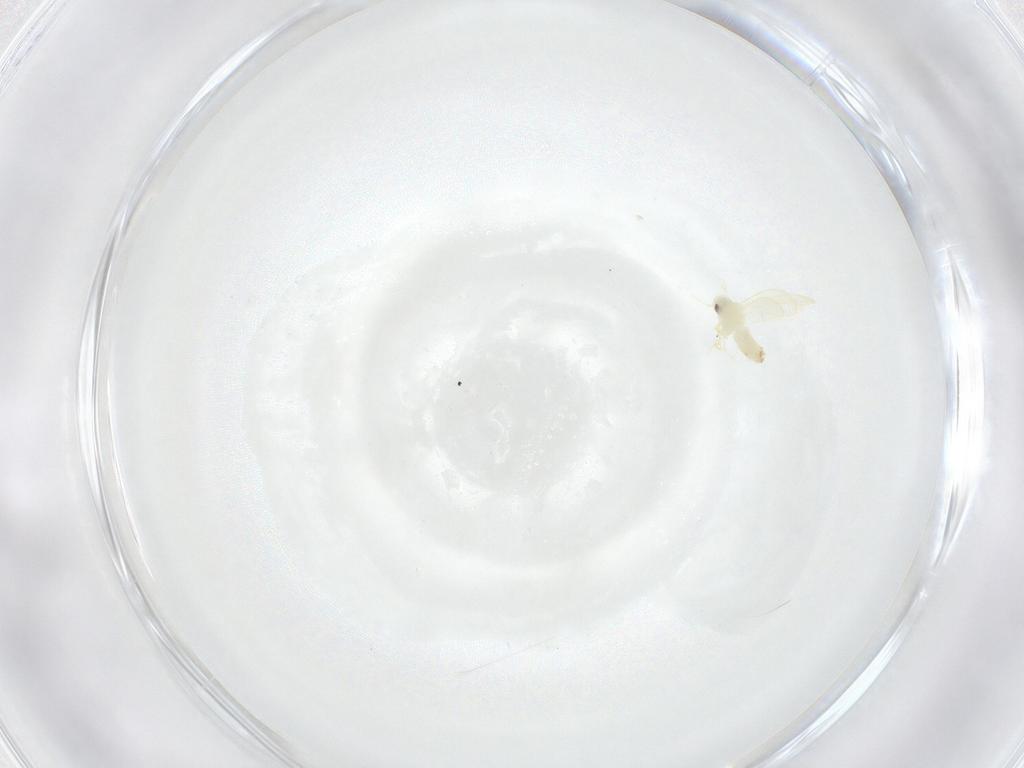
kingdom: Animalia
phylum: Arthropoda
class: Insecta
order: Hemiptera
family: Aleyrodidae
